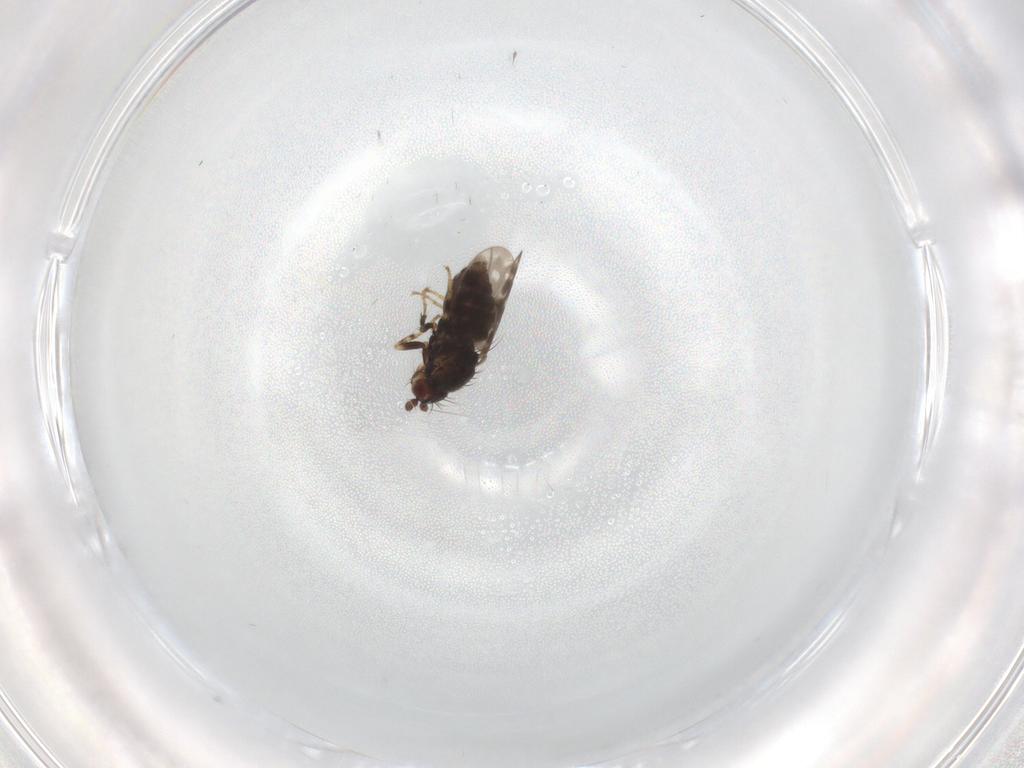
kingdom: Animalia
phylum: Arthropoda
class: Insecta
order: Diptera
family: Sphaeroceridae
